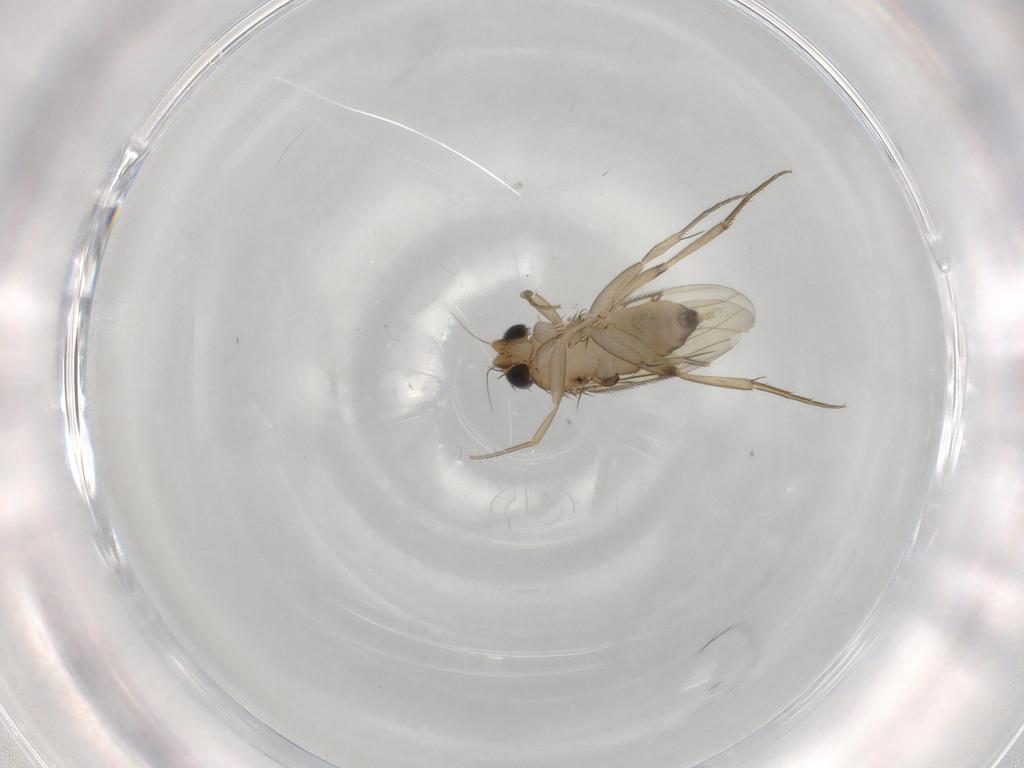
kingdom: Animalia
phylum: Arthropoda
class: Insecta
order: Diptera
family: Phoridae
